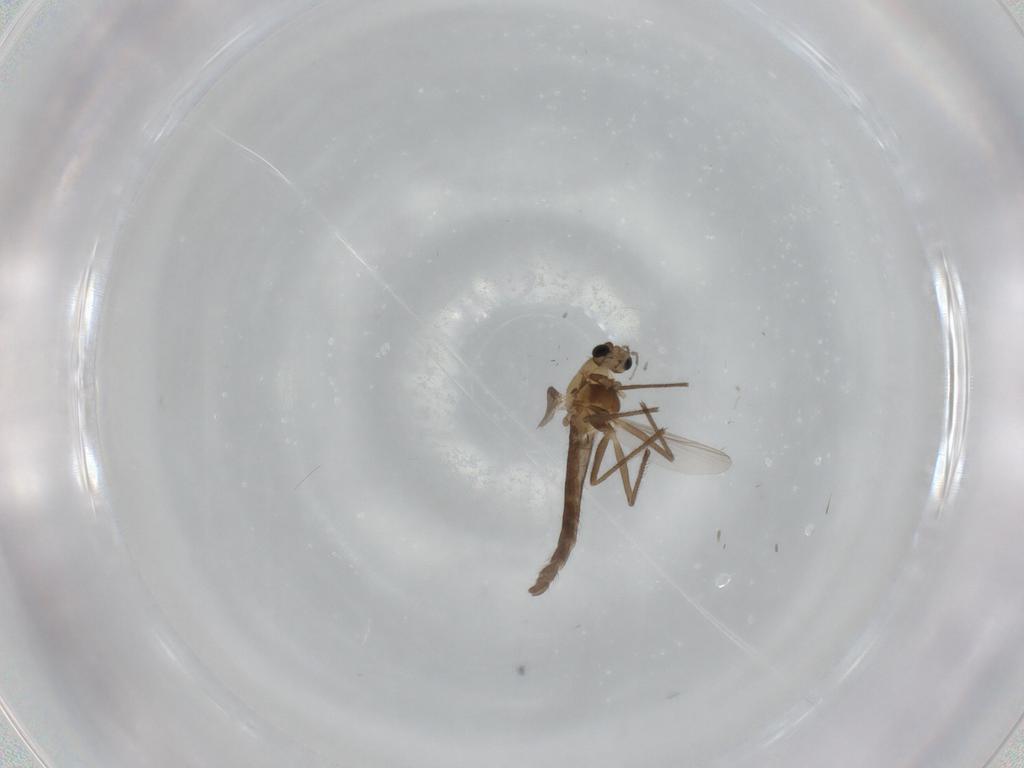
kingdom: Animalia
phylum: Arthropoda
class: Insecta
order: Diptera
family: Chironomidae
